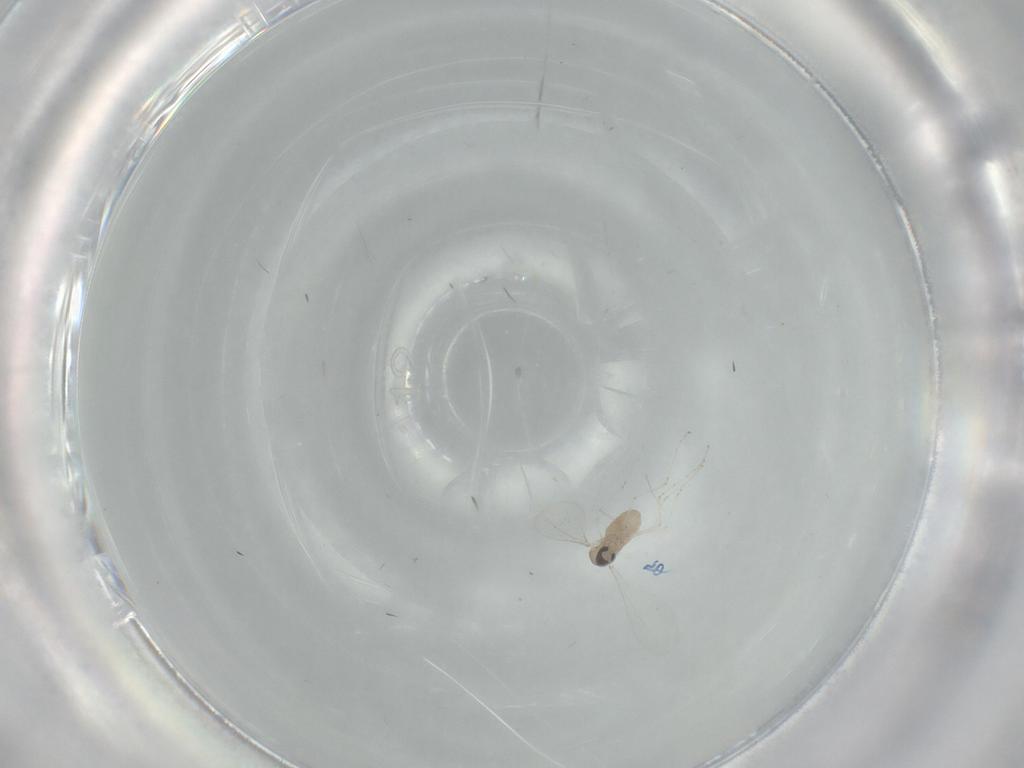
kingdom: Animalia
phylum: Arthropoda
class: Insecta
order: Diptera
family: Cecidomyiidae
